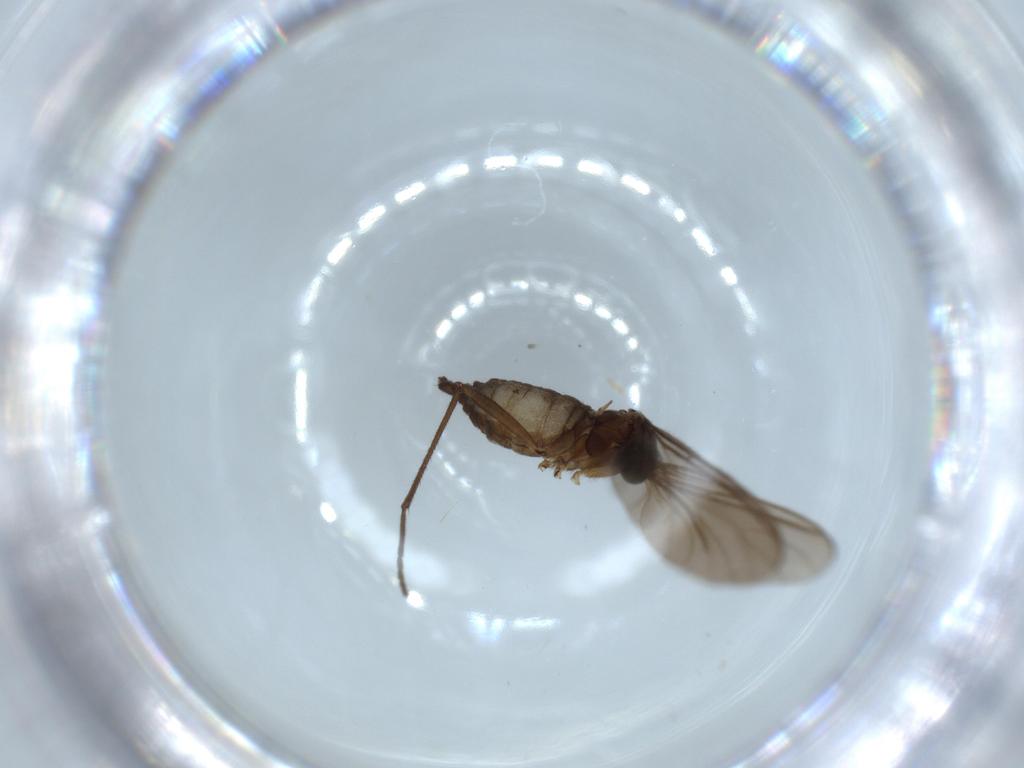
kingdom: Animalia
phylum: Arthropoda
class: Insecta
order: Diptera
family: Sciaridae
